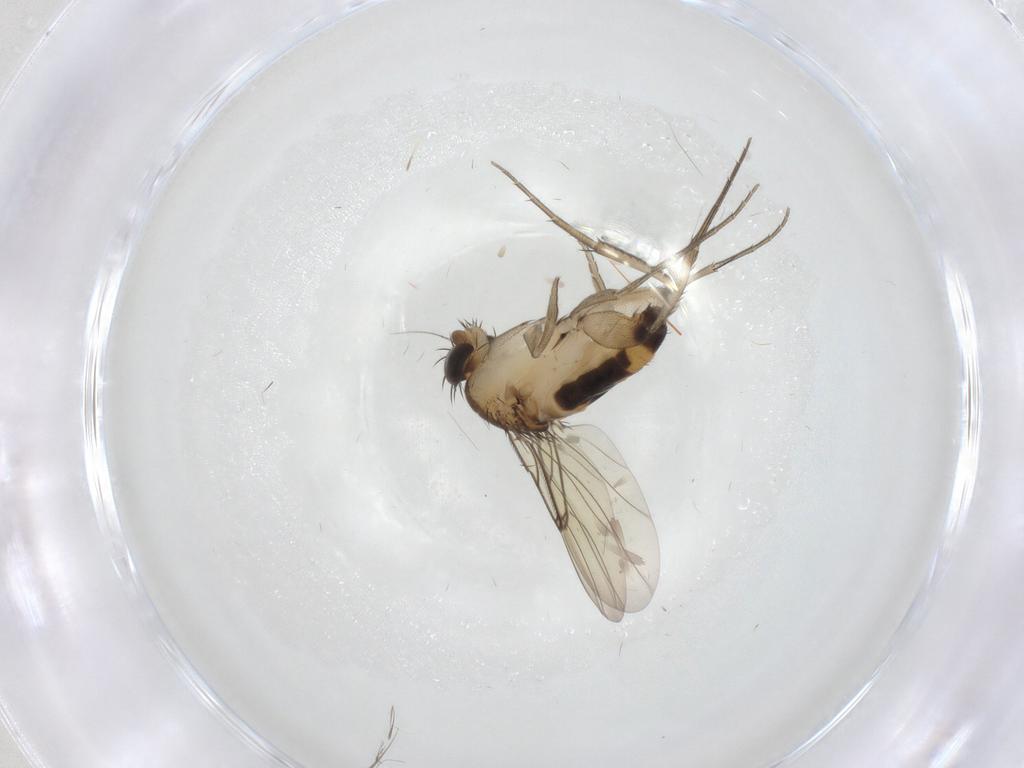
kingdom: Animalia
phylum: Arthropoda
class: Insecta
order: Diptera
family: Phoridae
